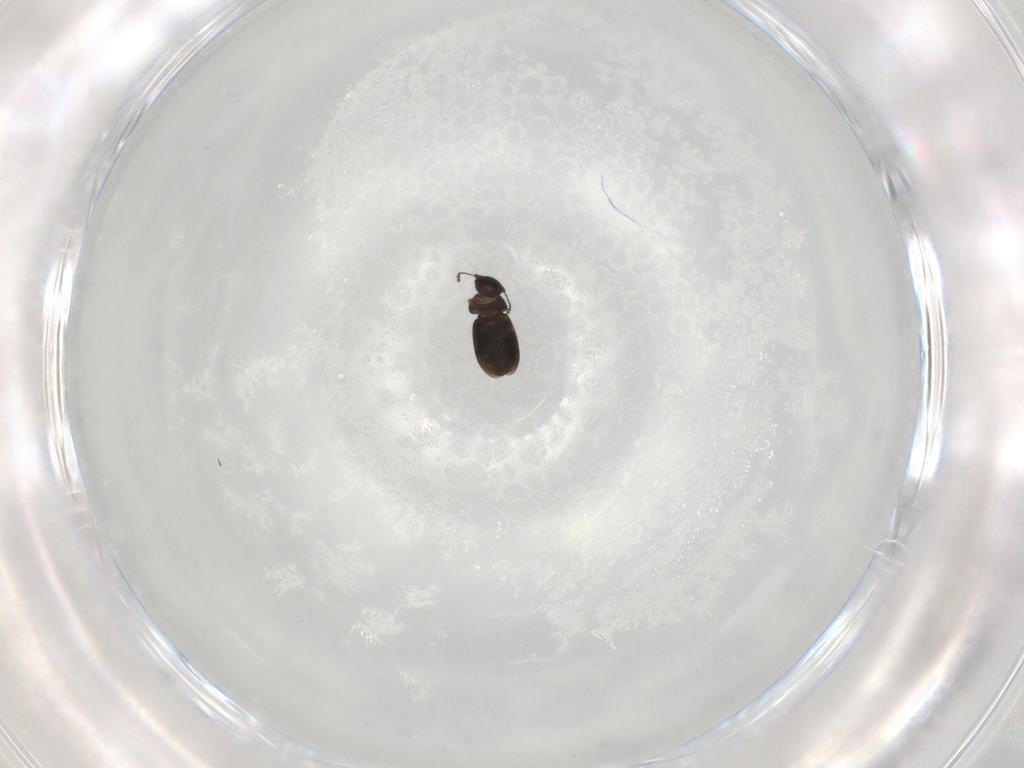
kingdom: Animalia
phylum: Arthropoda
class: Insecta
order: Coleoptera
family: Ptiliidae
